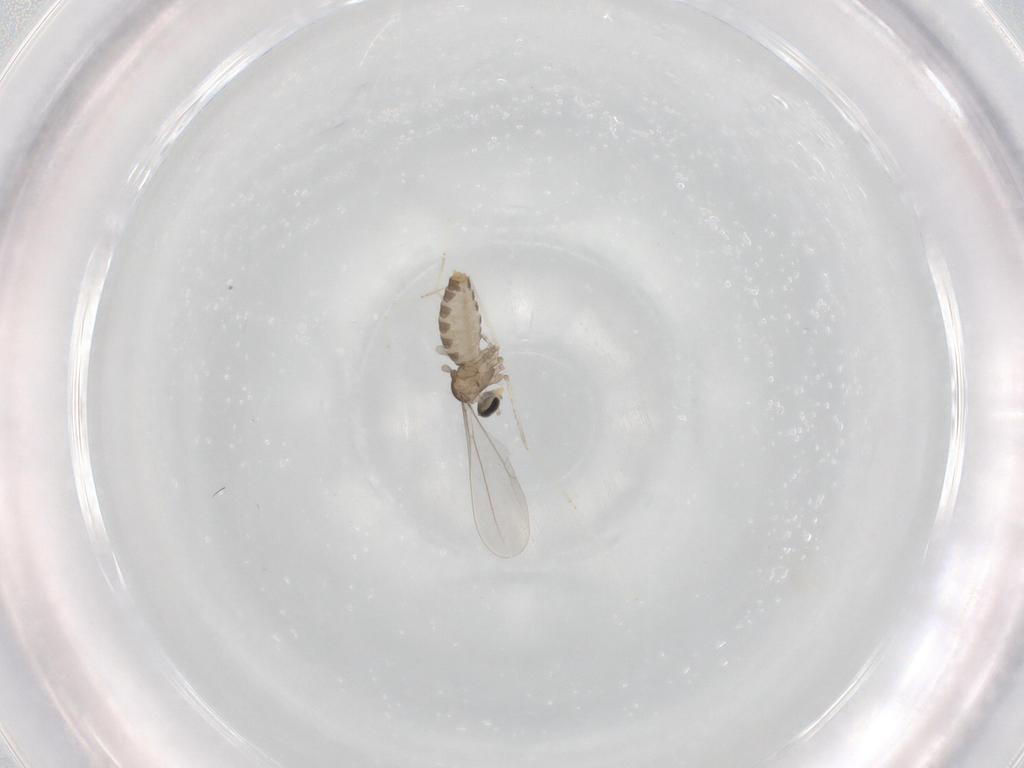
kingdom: Animalia
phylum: Arthropoda
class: Insecta
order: Diptera
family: Cecidomyiidae
